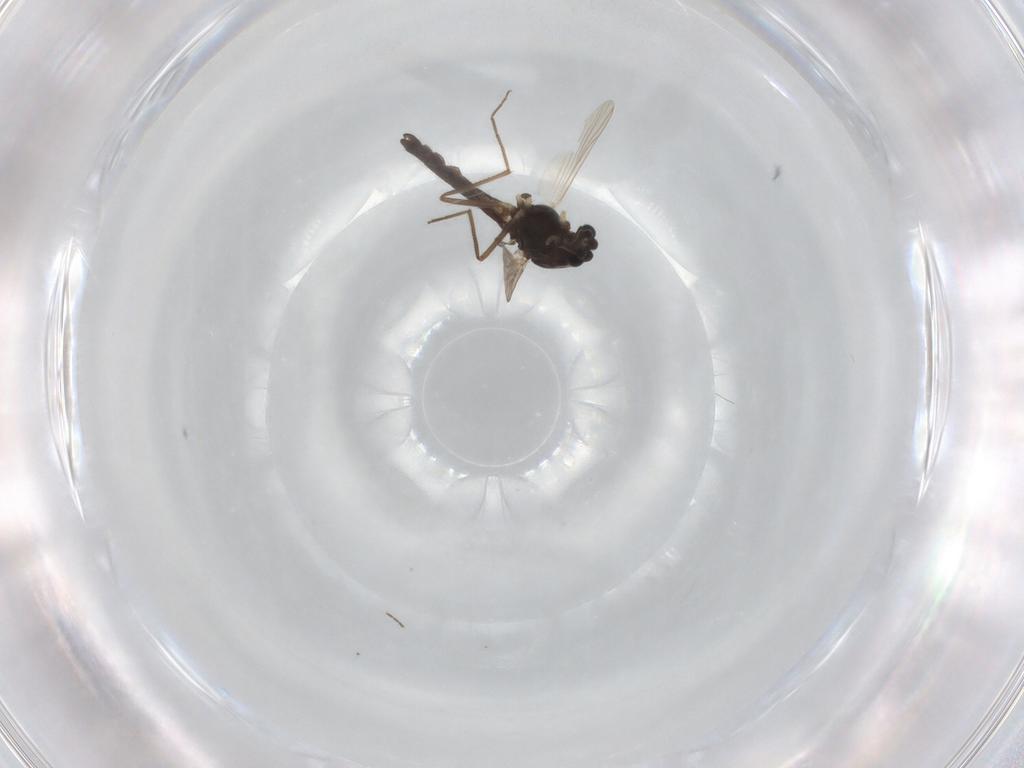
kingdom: Animalia
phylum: Arthropoda
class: Insecta
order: Diptera
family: Chironomidae
